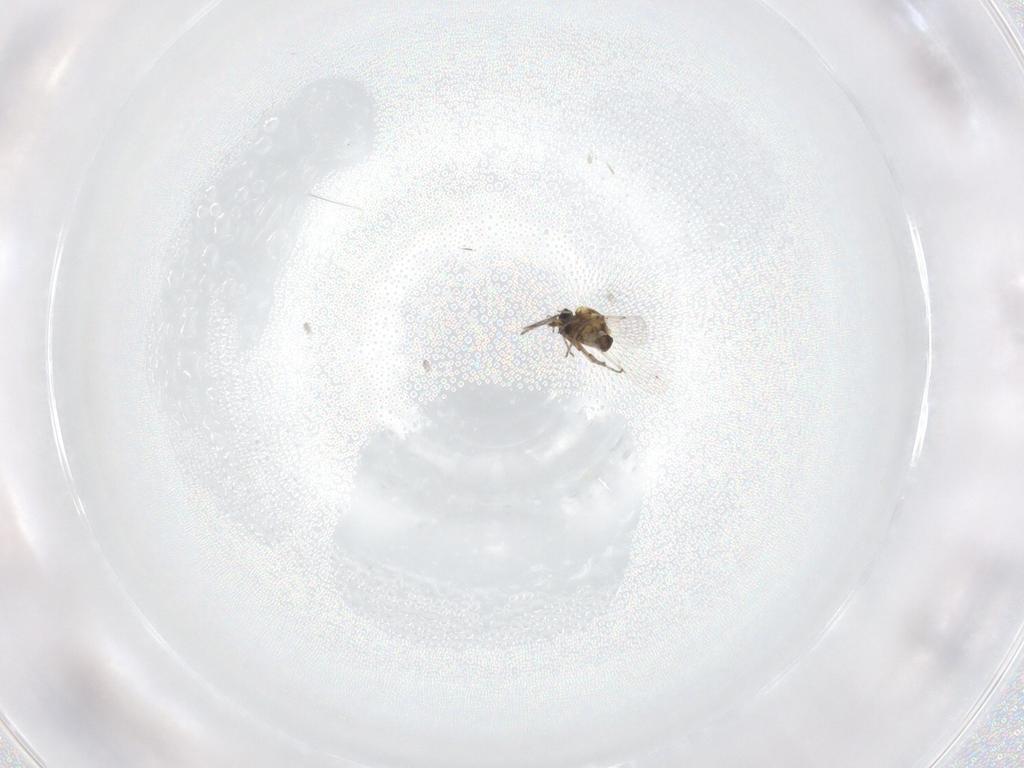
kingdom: Animalia
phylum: Arthropoda
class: Insecta
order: Diptera
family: Ceratopogonidae
